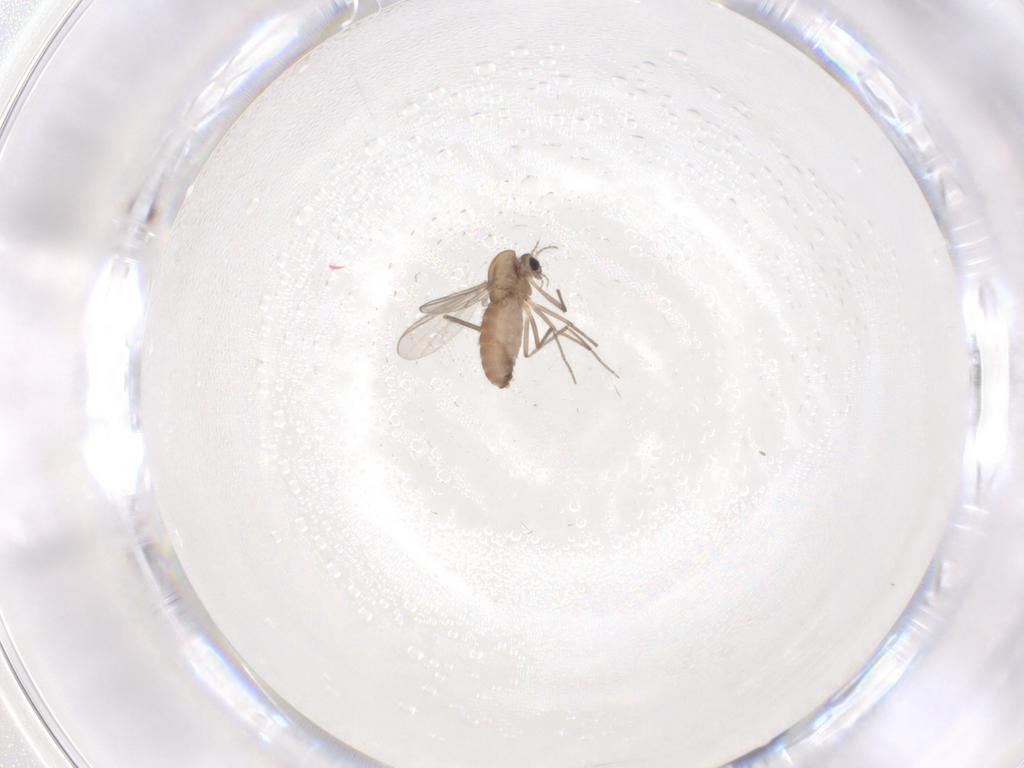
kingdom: Animalia
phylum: Arthropoda
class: Insecta
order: Diptera
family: Chironomidae
